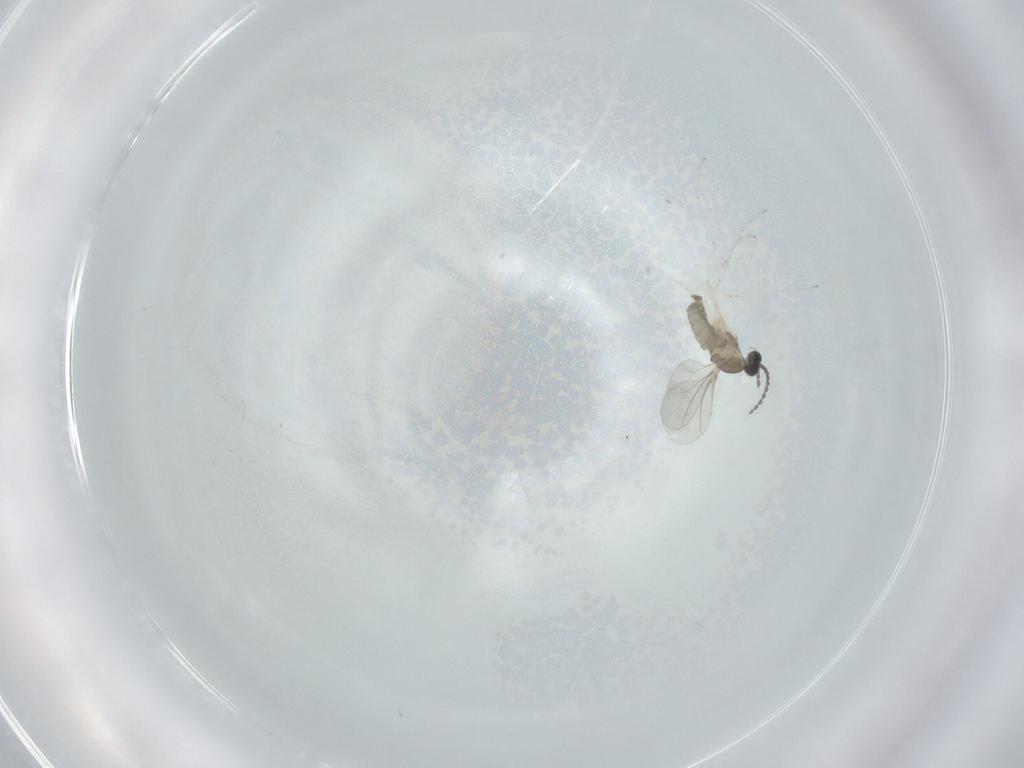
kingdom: Animalia
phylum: Arthropoda
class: Insecta
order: Diptera
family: Cecidomyiidae
